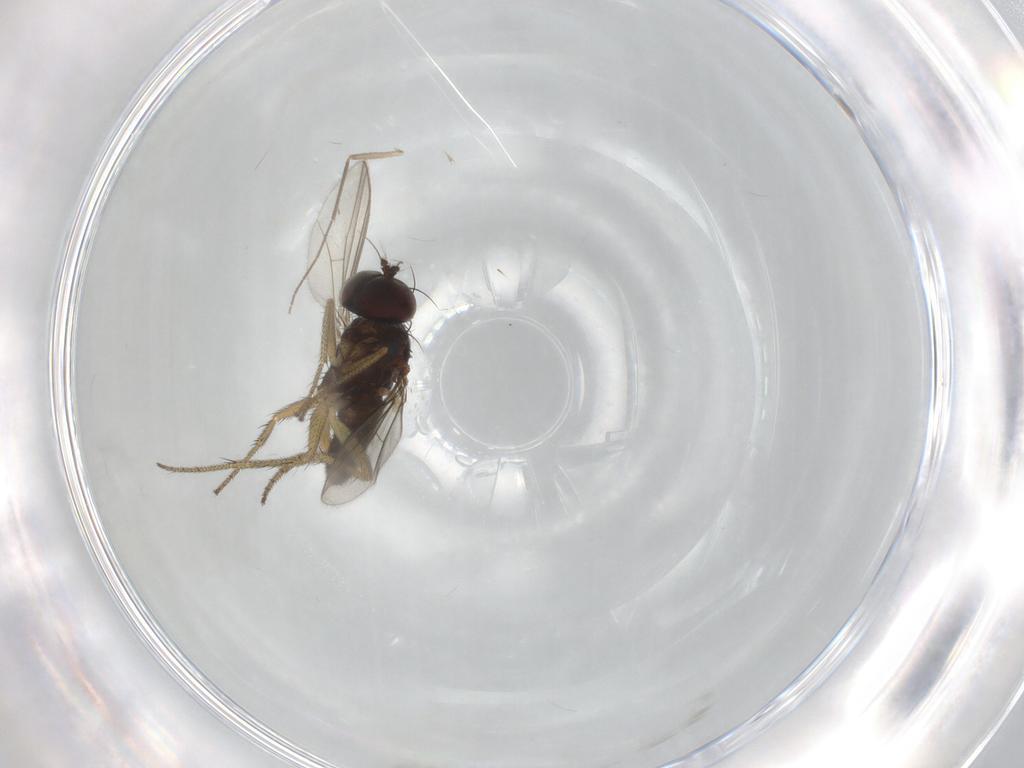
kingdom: Animalia
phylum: Arthropoda
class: Insecta
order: Diptera
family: Chironomidae
